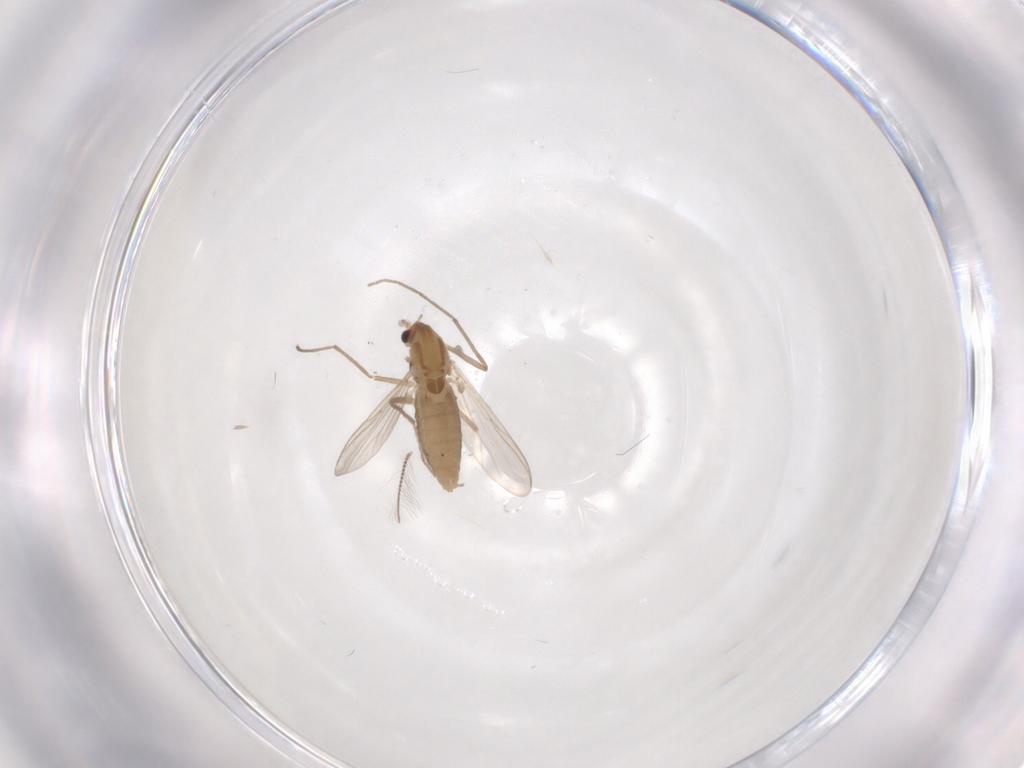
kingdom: Animalia
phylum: Arthropoda
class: Insecta
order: Diptera
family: Chironomidae
